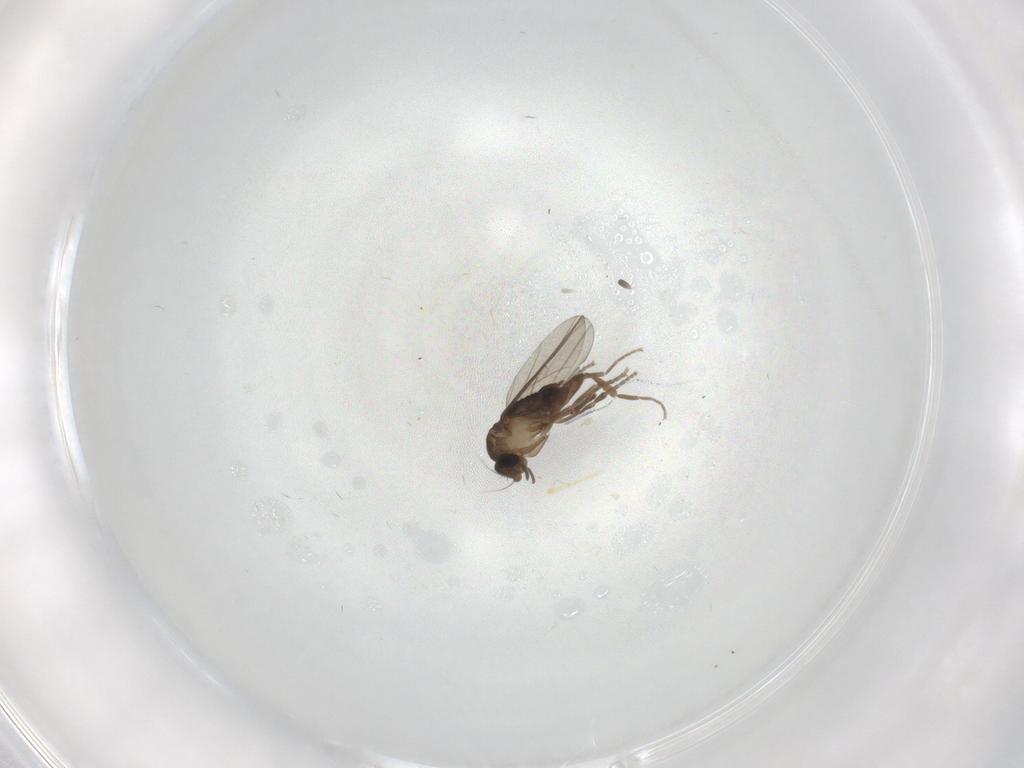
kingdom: Animalia
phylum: Arthropoda
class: Insecta
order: Diptera
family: Sciaridae
